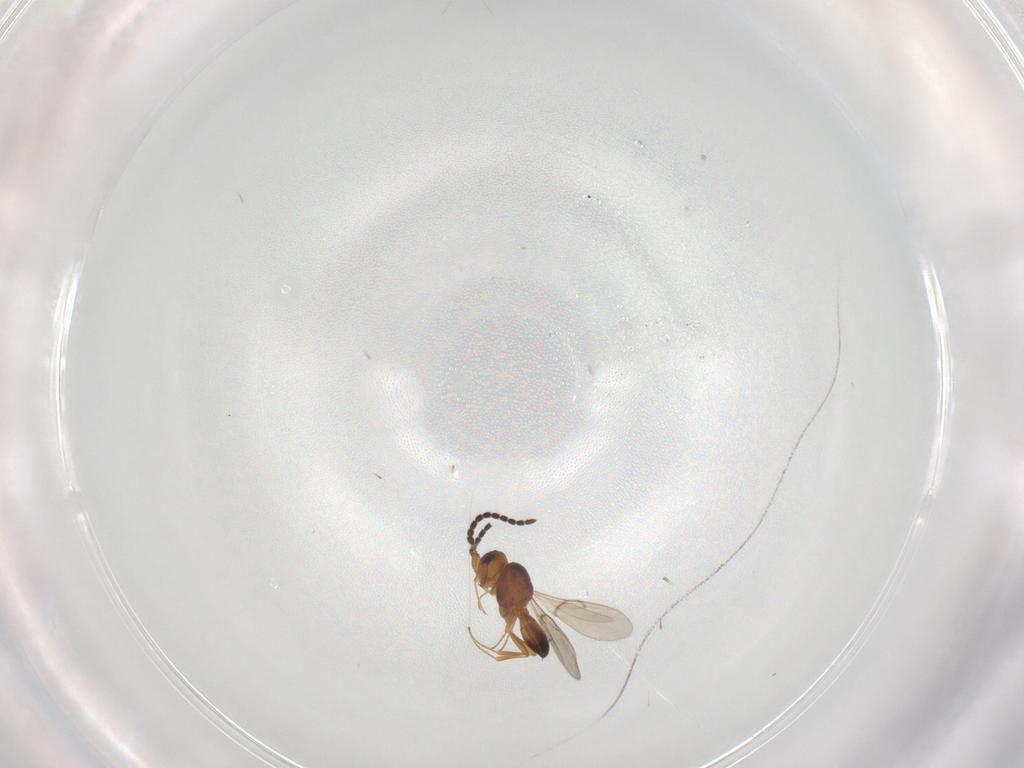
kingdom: Animalia
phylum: Arthropoda
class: Insecta
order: Hymenoptera
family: Scelionidae
